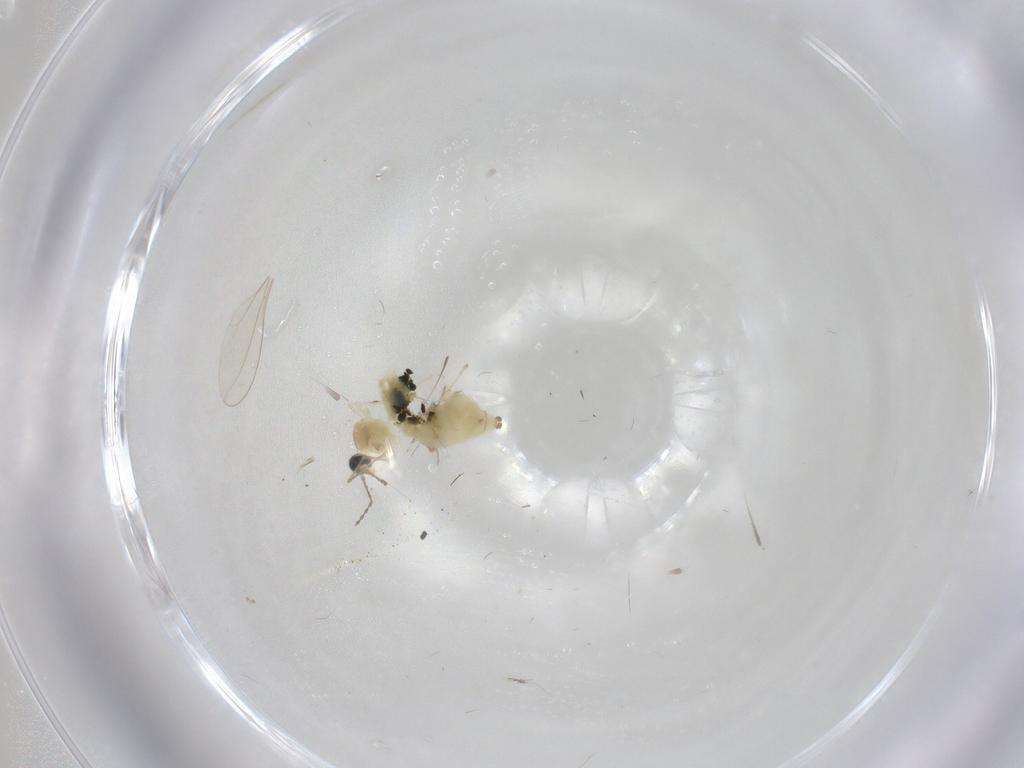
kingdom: Animalia
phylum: Arthropoda
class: Insecta
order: Diptera
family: Cecidomyiidae
